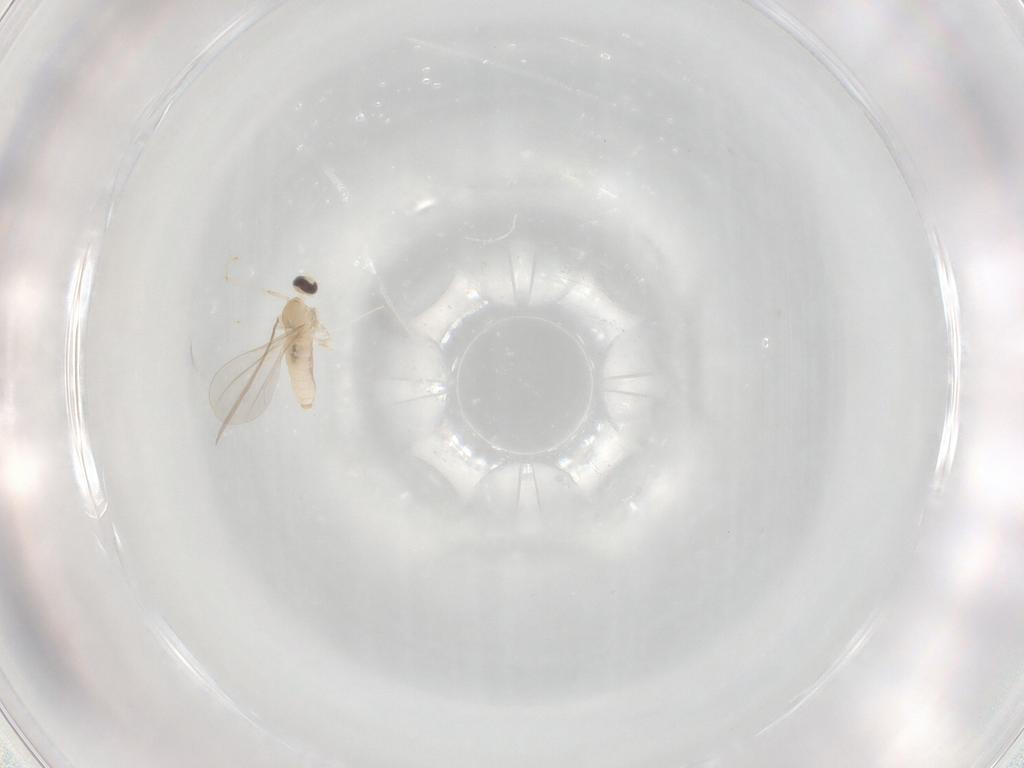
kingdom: Animalia
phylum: Arthropoda
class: Insecta
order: Diptera
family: Cecidomyiidae
